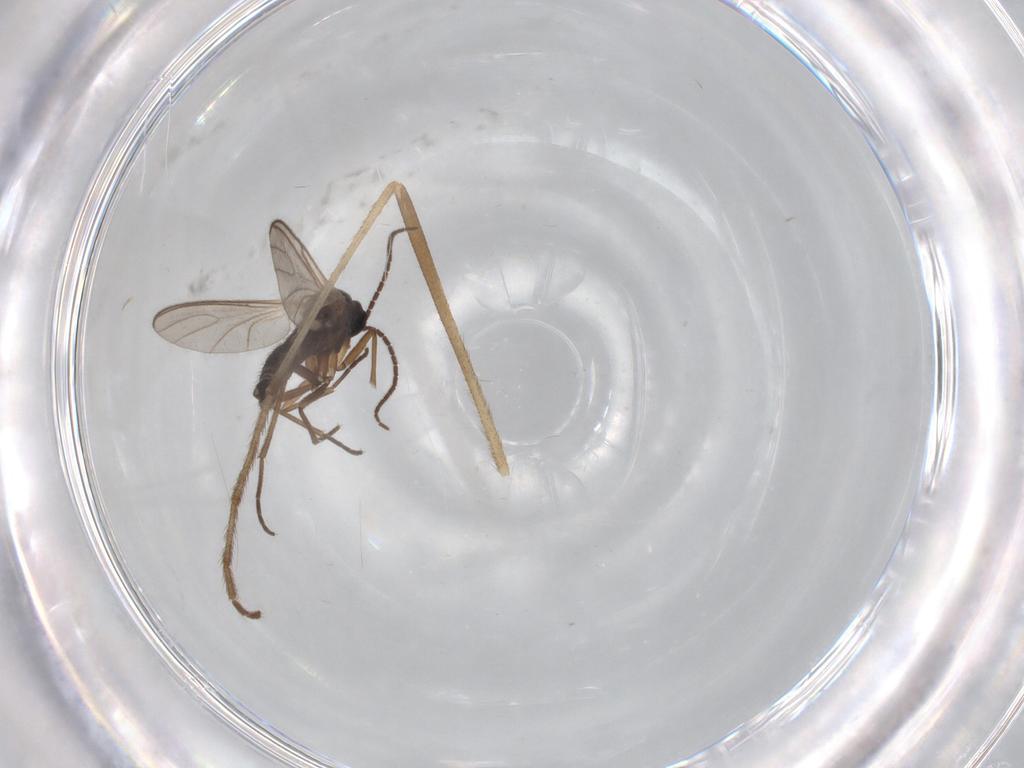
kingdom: Animalia
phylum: Arthropoda
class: Insecta
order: Diptera
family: Sciaridae
